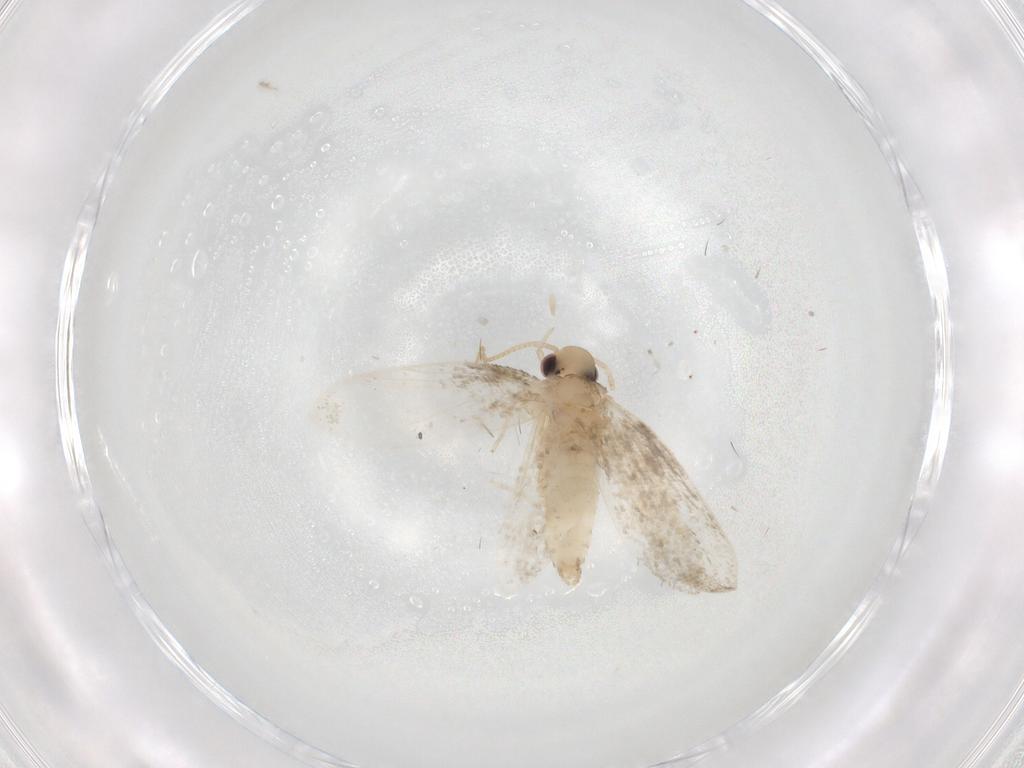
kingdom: Animalia
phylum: Arthropoda
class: Insecta
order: Lepidoptera
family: Psychidae
